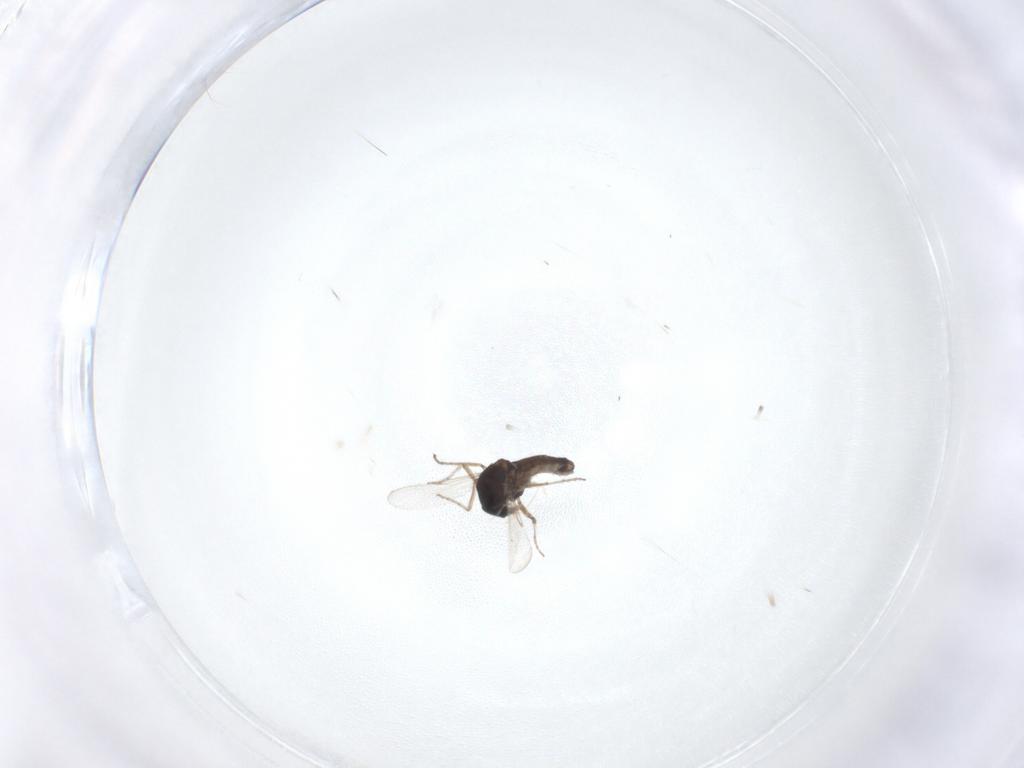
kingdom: Animalia
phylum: Arthropoda
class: Insecta
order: Diptera
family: Ceratopogonidae
